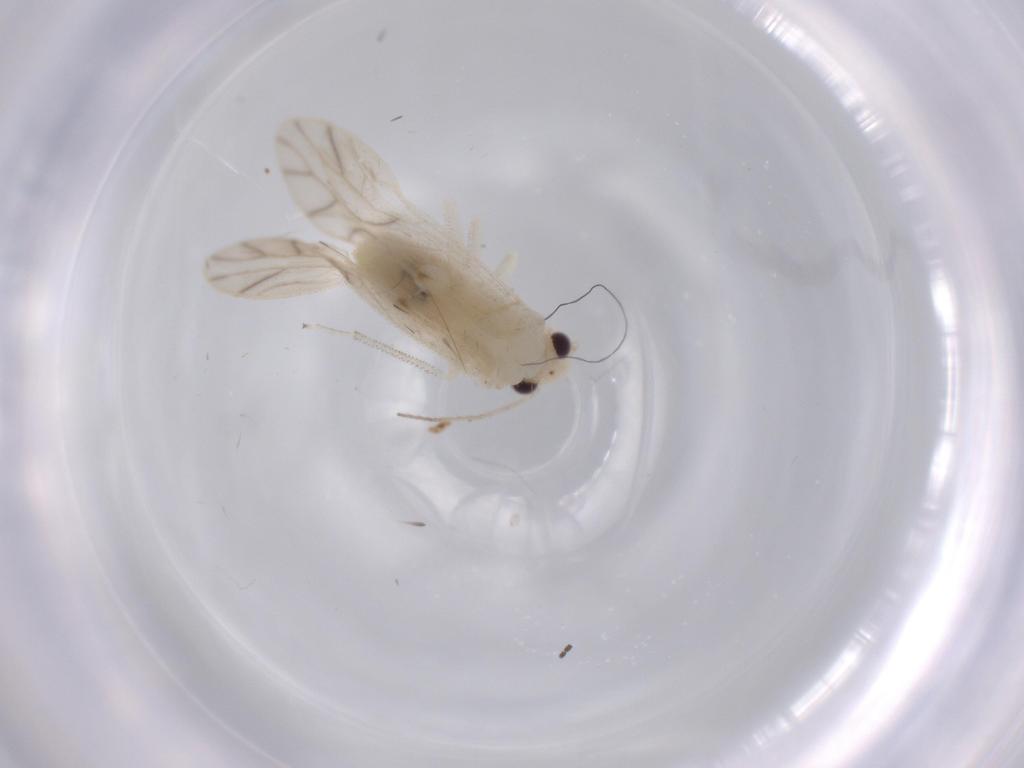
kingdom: Animalia
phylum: Arthropoda
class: Insecta
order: Psocodea
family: Caeciliusidae
